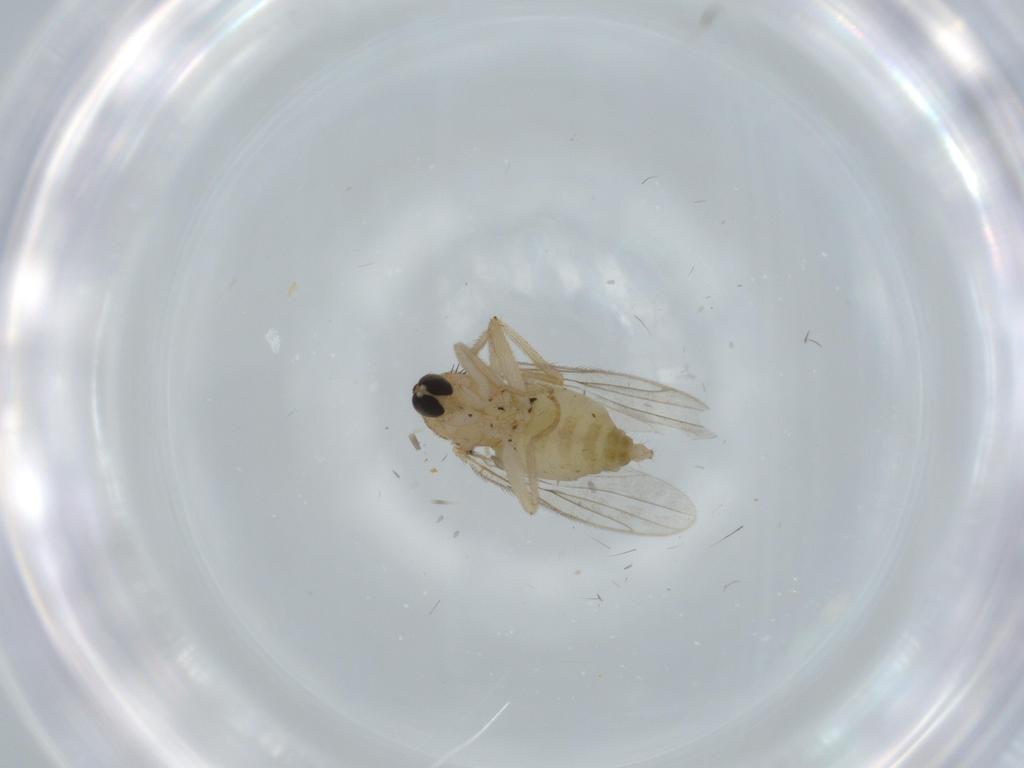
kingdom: Animalia
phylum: Arthropoda
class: Insecta
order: Diptera
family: Hybotidae
